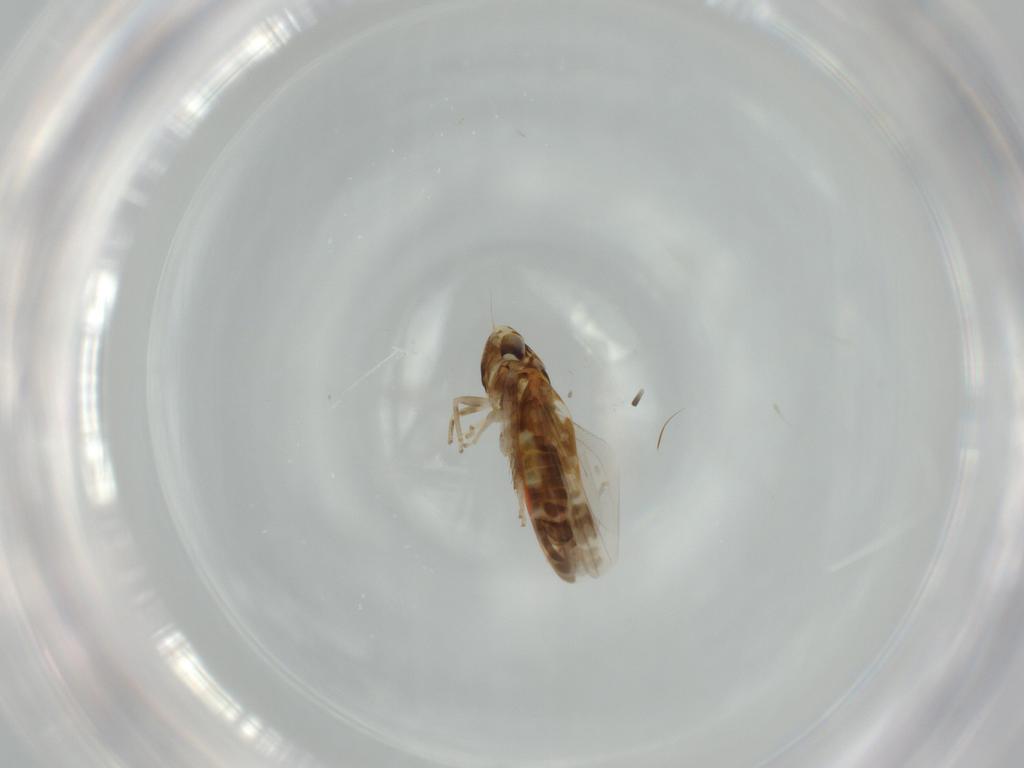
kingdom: Animalia
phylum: Arthropoda
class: Insecta
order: Hemiptera
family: Cicadellidae
